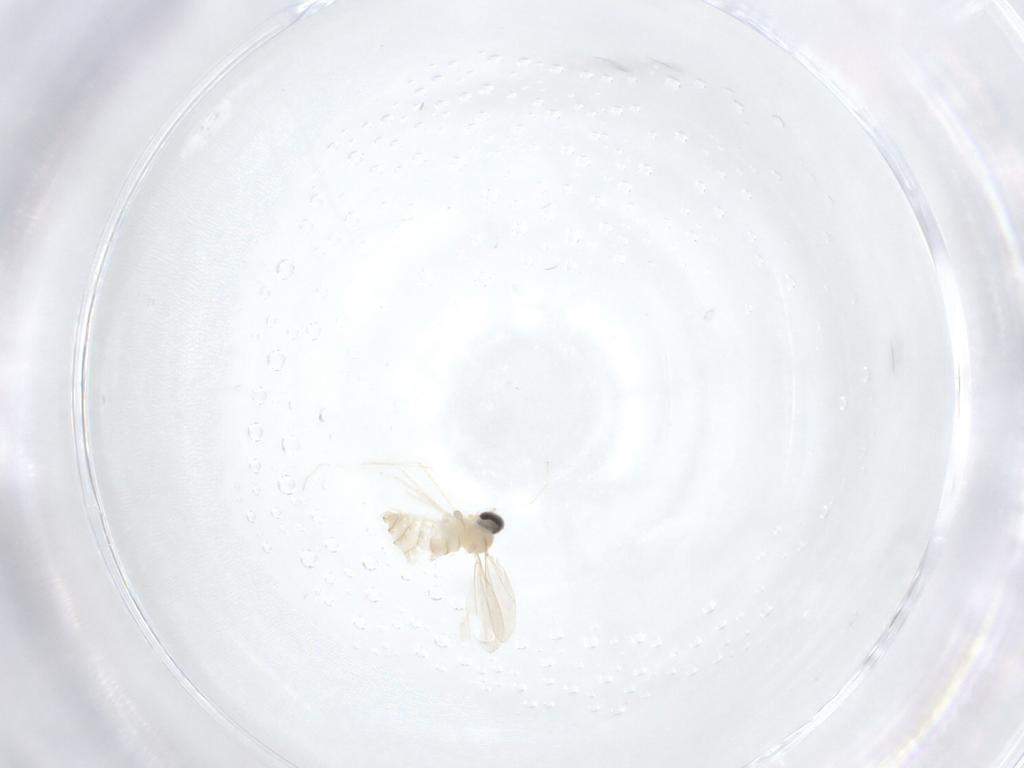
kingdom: Animalia
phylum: Arthropoda
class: Insecta
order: Diptera
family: Cecidomyiidae
